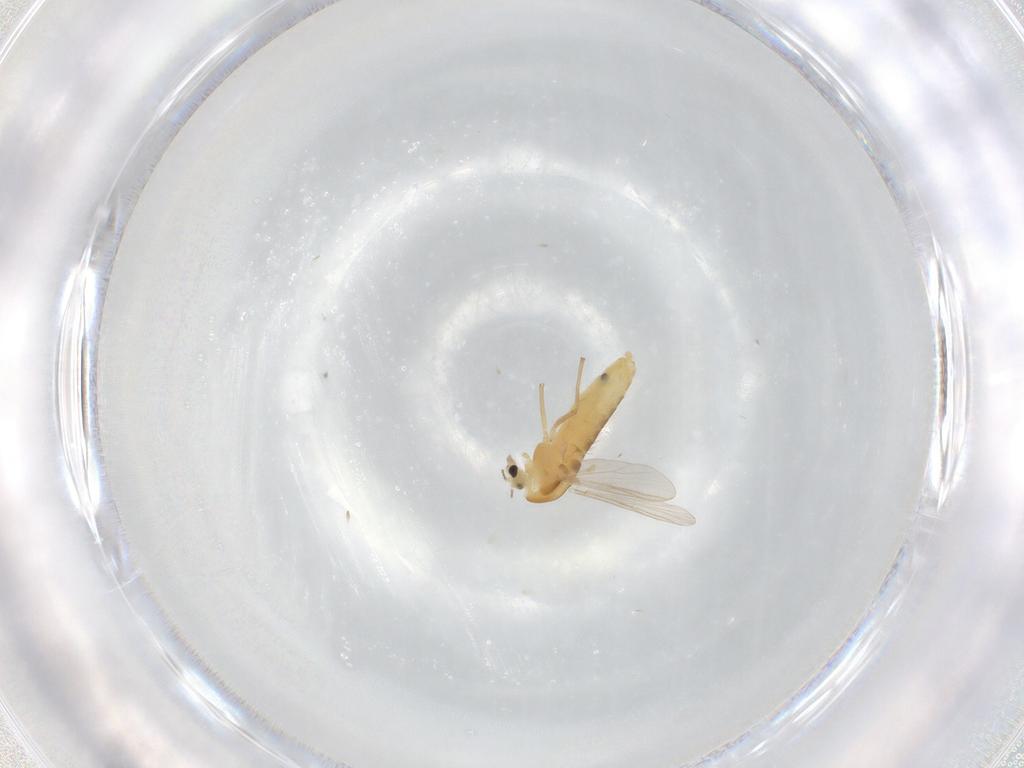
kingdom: Animalia
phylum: Arthropoda
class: Insecta
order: Diptera
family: Chironomidae
